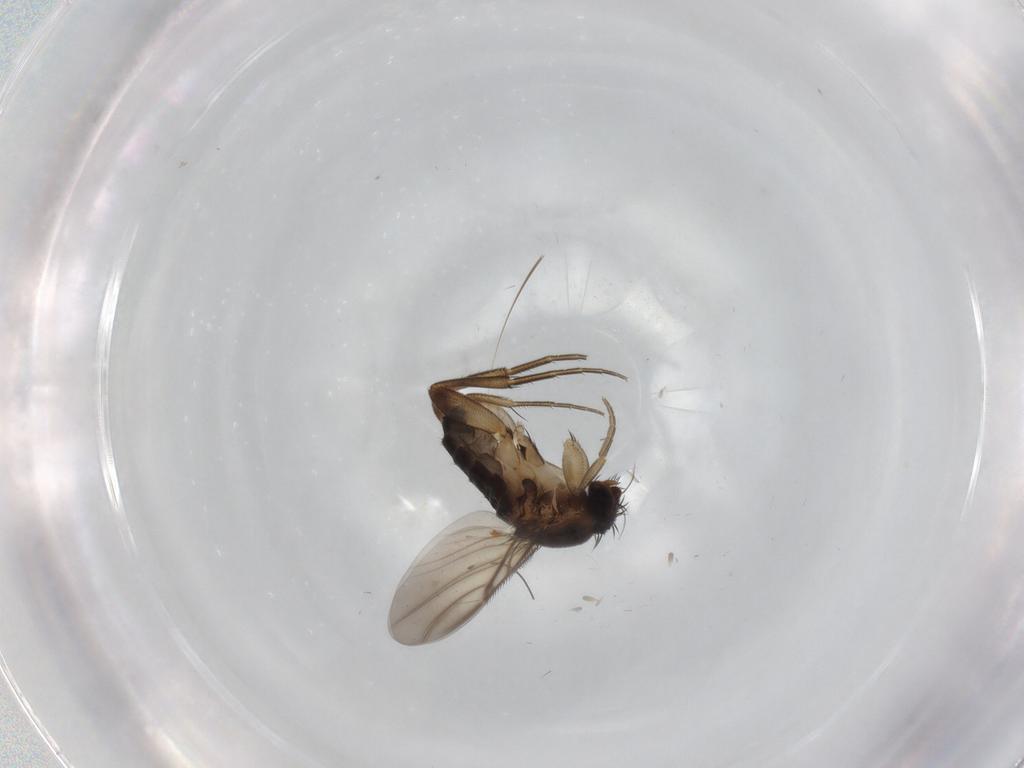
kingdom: Animalia
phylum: Arthropoda
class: Insecta
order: Diptera
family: Phoridae
